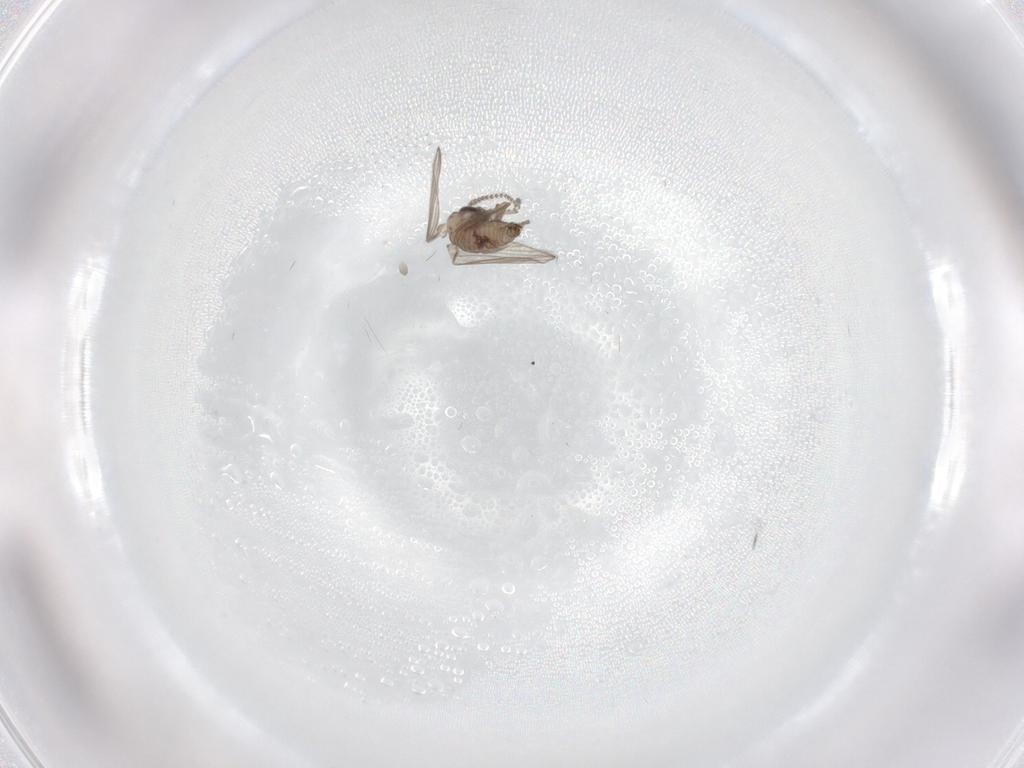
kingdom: Animalia
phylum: Arthropoda
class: Insecta
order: Diptera
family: Psychodidae
